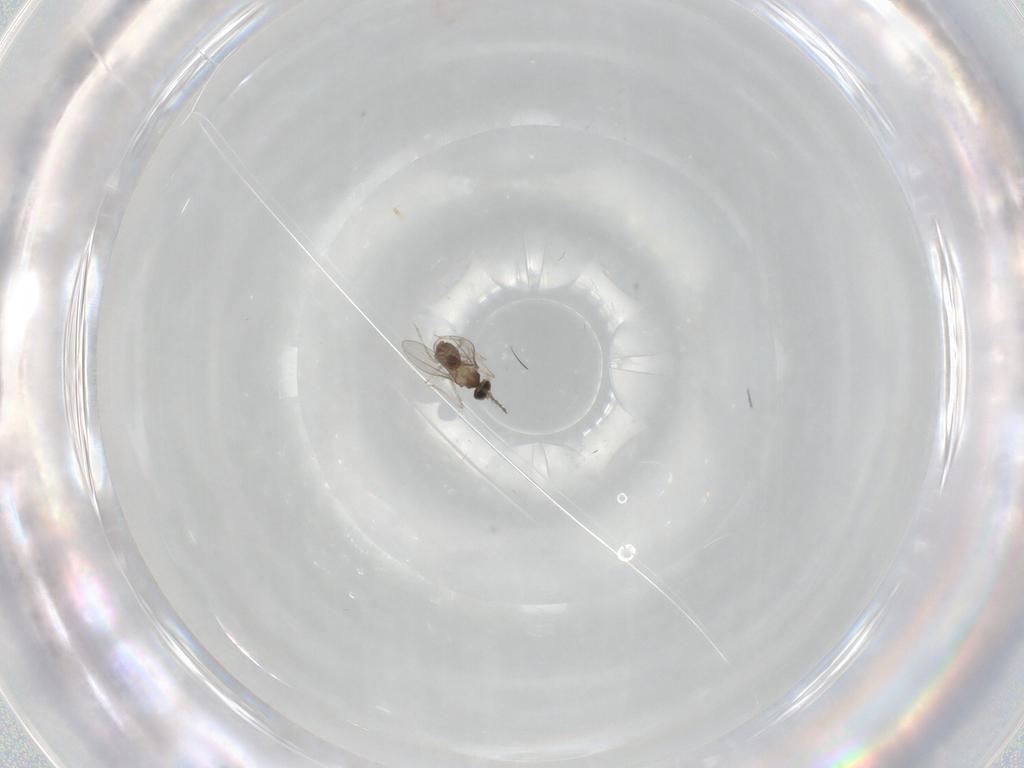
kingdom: Animalia
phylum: Arthropoda
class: Insecta
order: Diptera
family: Cecidomyiidae
